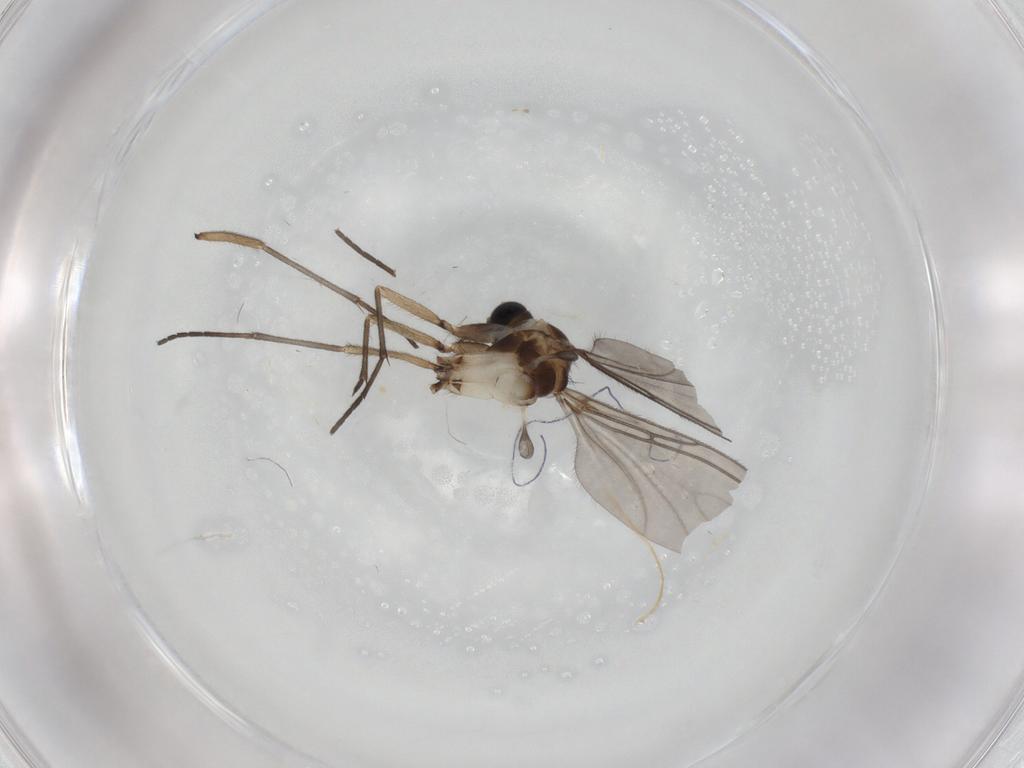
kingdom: Animalia
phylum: Arthropoda
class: Insecta
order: Diptera
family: Sciaridae
